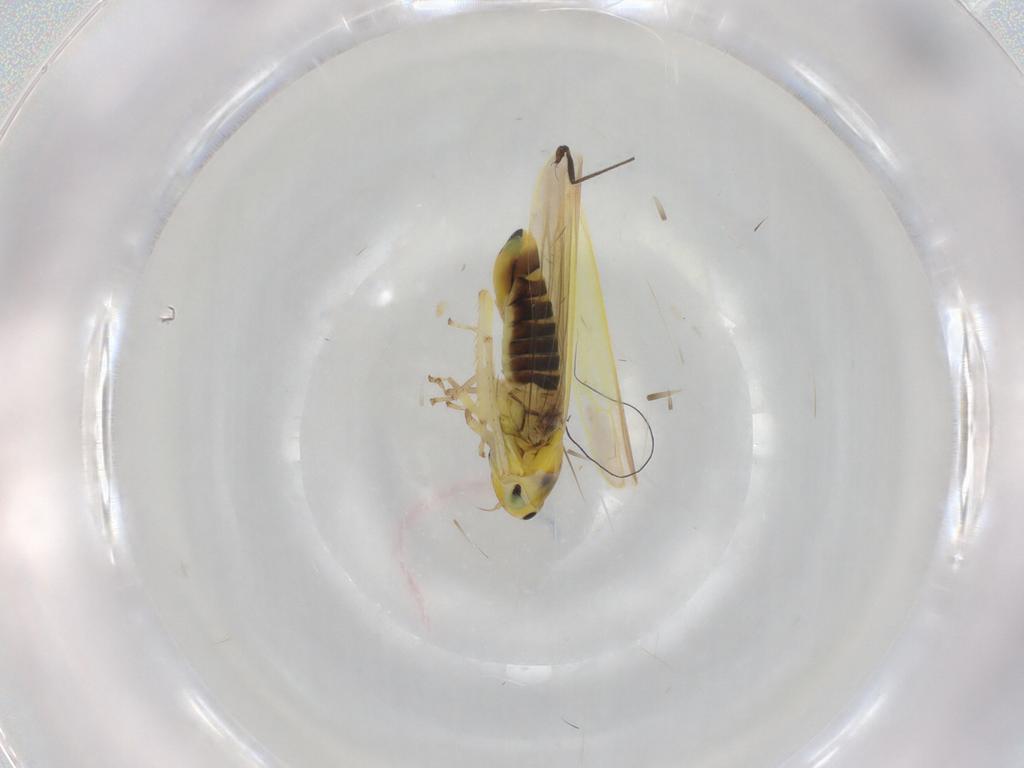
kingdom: Animalia
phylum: Arthropoda
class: Insecta
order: Hemiptera
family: Cicadellidae
